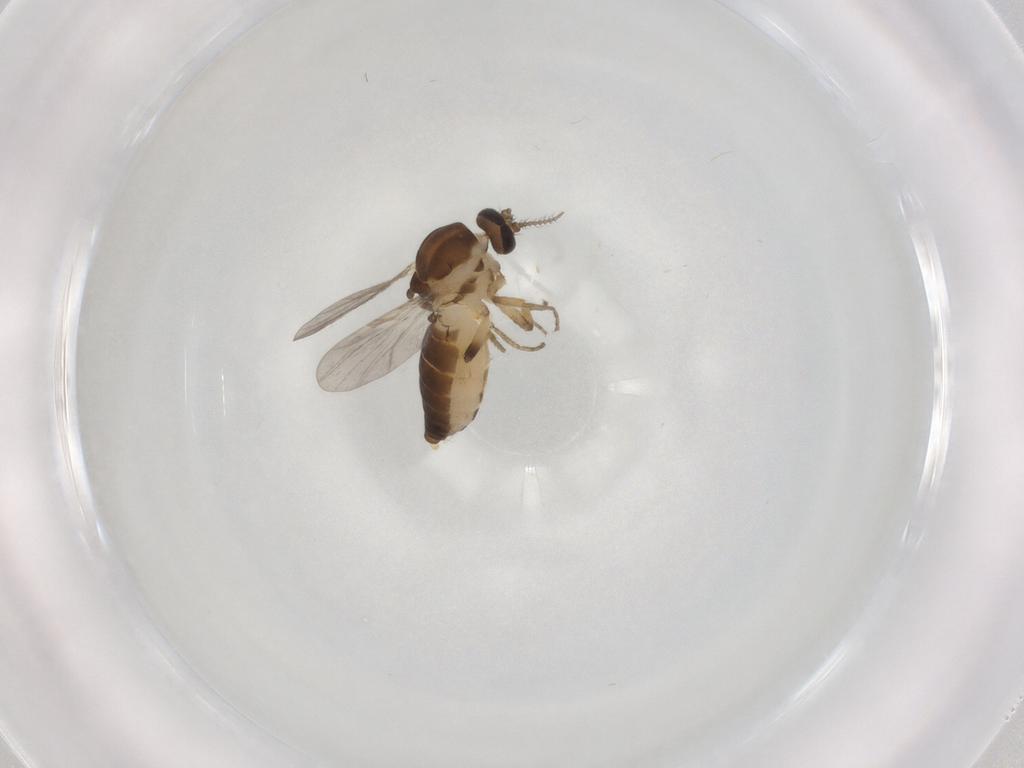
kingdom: Animalia
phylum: Arthropoda
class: Insecta
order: Diptera
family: Ceratopogonidae
